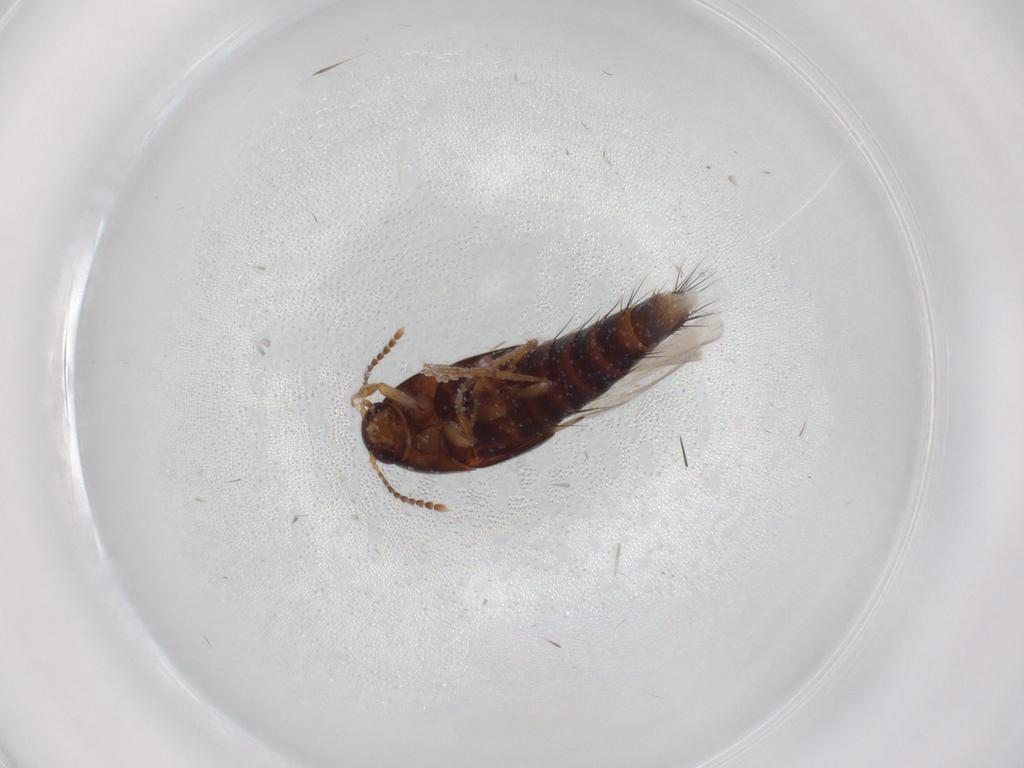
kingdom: Animalia
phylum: Arthropoda
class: Insecta
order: Coleoptera
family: Staphylinidae
